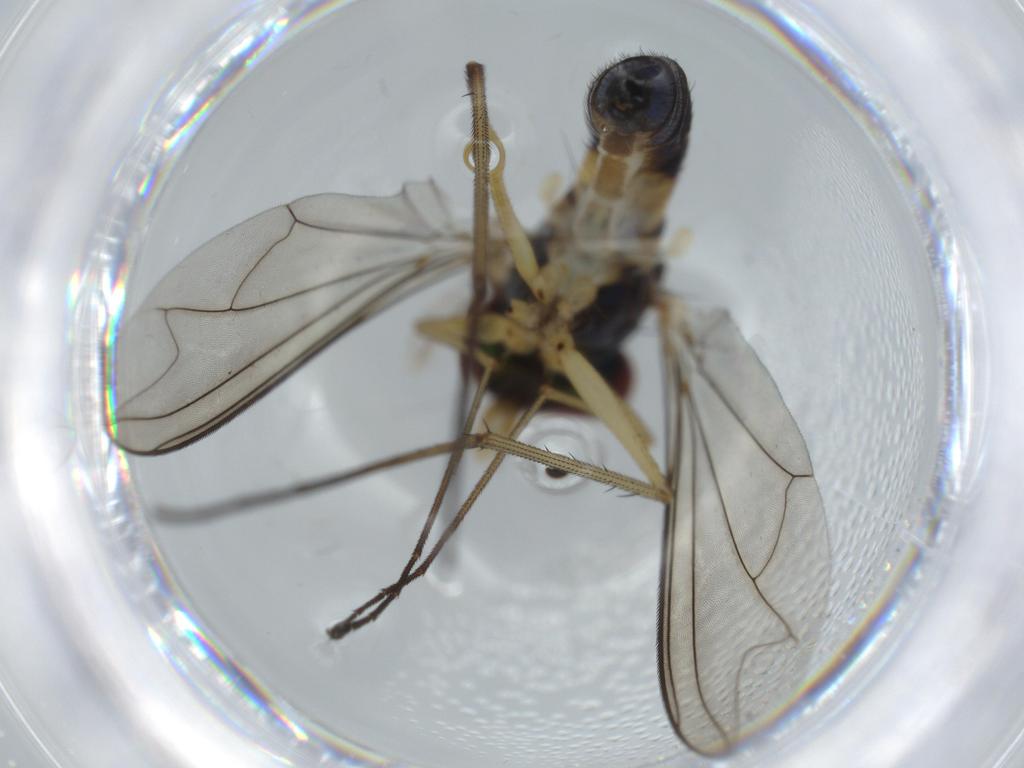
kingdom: Animalia
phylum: Arthropoda
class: Insecta
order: Diptera
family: Dolichopodidae
